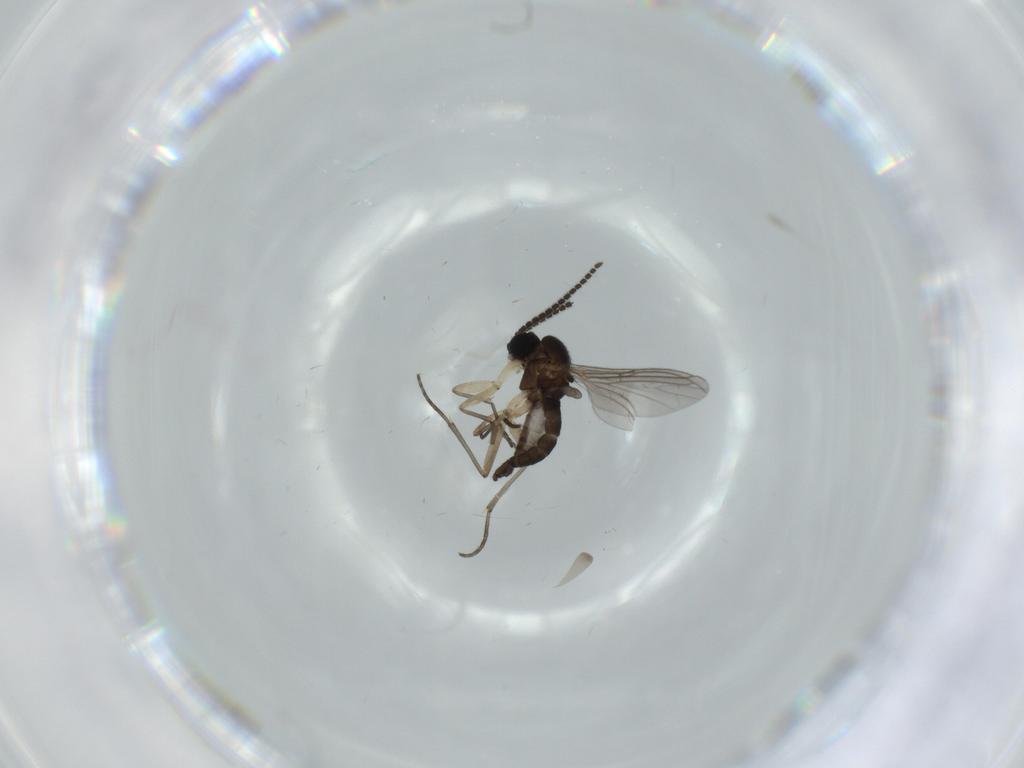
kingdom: Animalia
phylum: Arthropoda
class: Insecta
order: Diptera
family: Sciaridae
